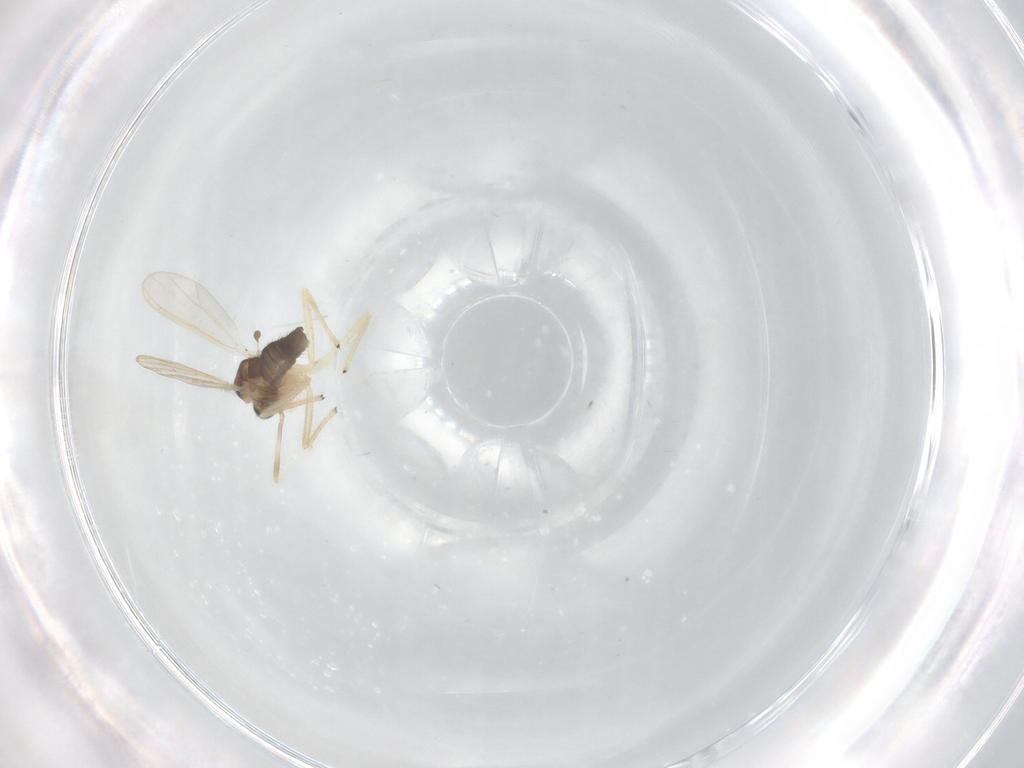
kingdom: Animalia
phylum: Arthropoda
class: Insecta
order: Diptera
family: Chironomidae
